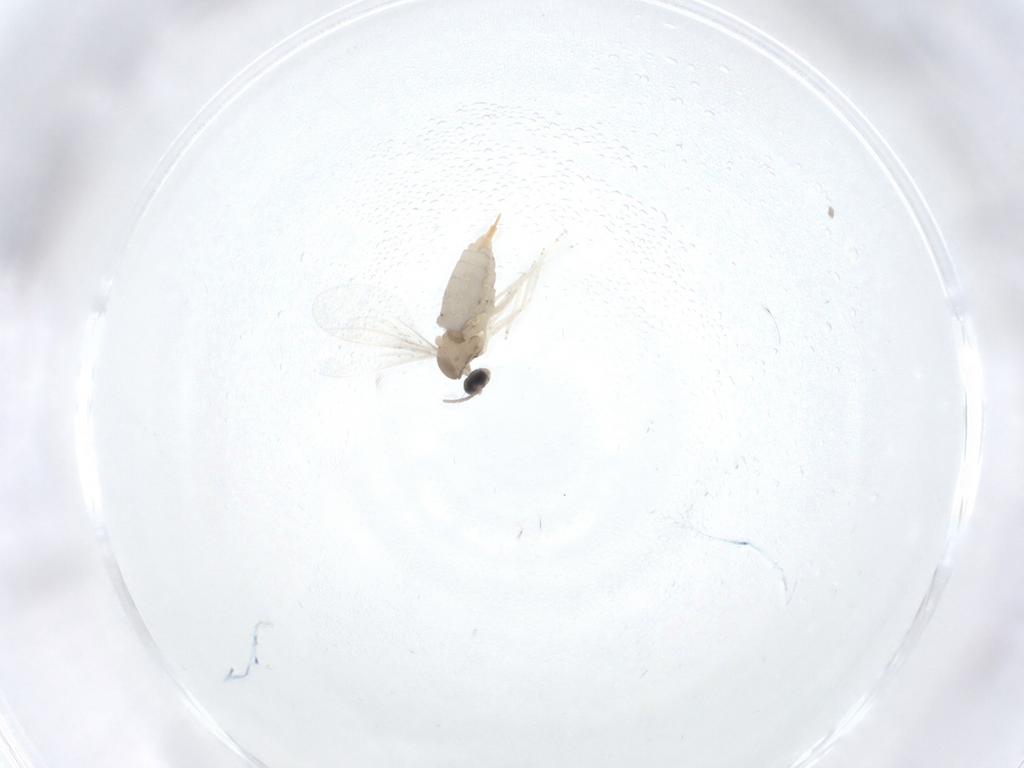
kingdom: Animalia
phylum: Arthropoda
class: Insecta
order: Diptera
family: Cecidomyiidae
